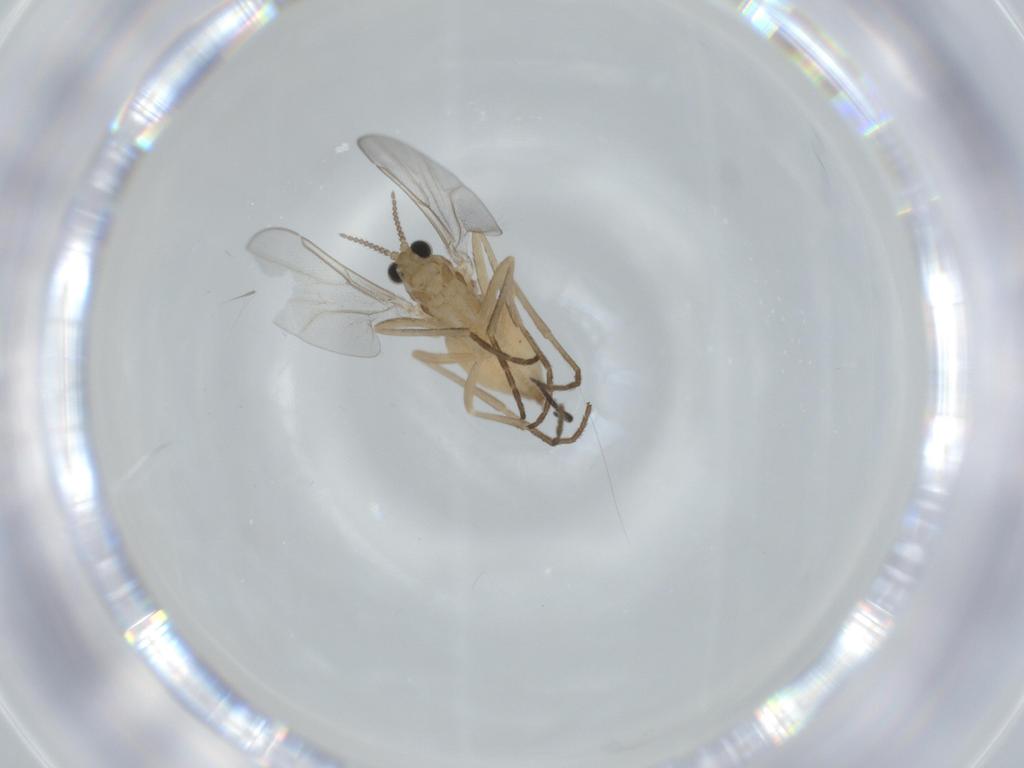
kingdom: Animalia
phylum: Arthropoda
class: Insecta
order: Diptera
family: Cecidomyiidae
